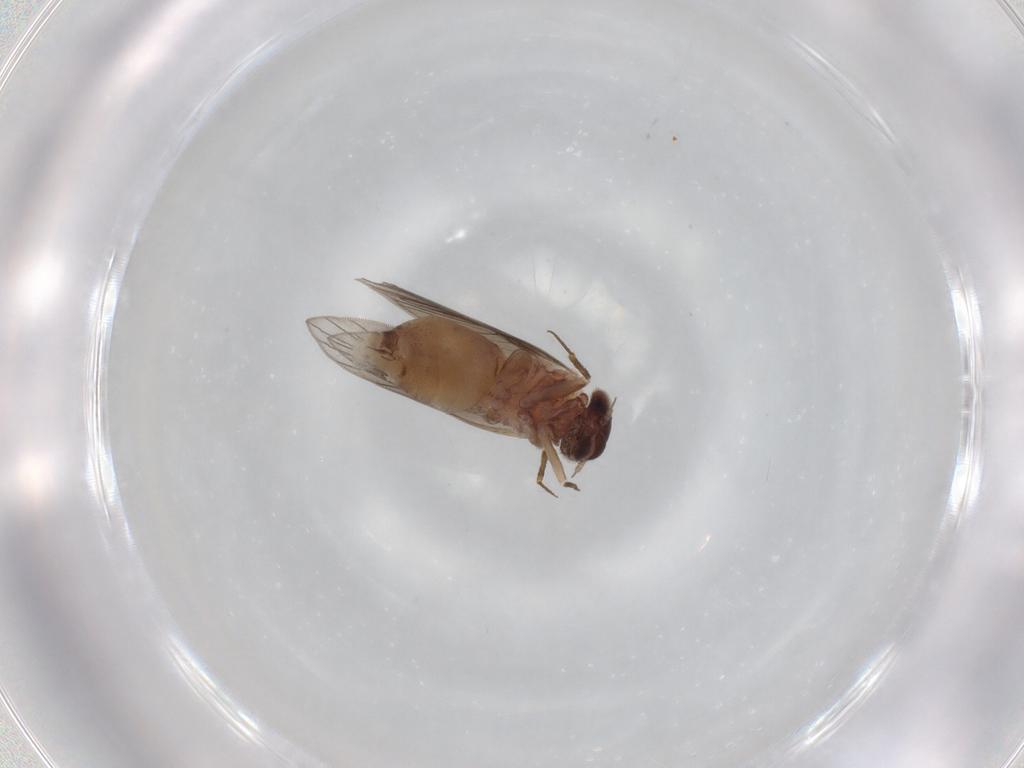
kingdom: Animalia
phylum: Arthropoda
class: Insecta
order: Psocodea
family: Lepidopsocidae
